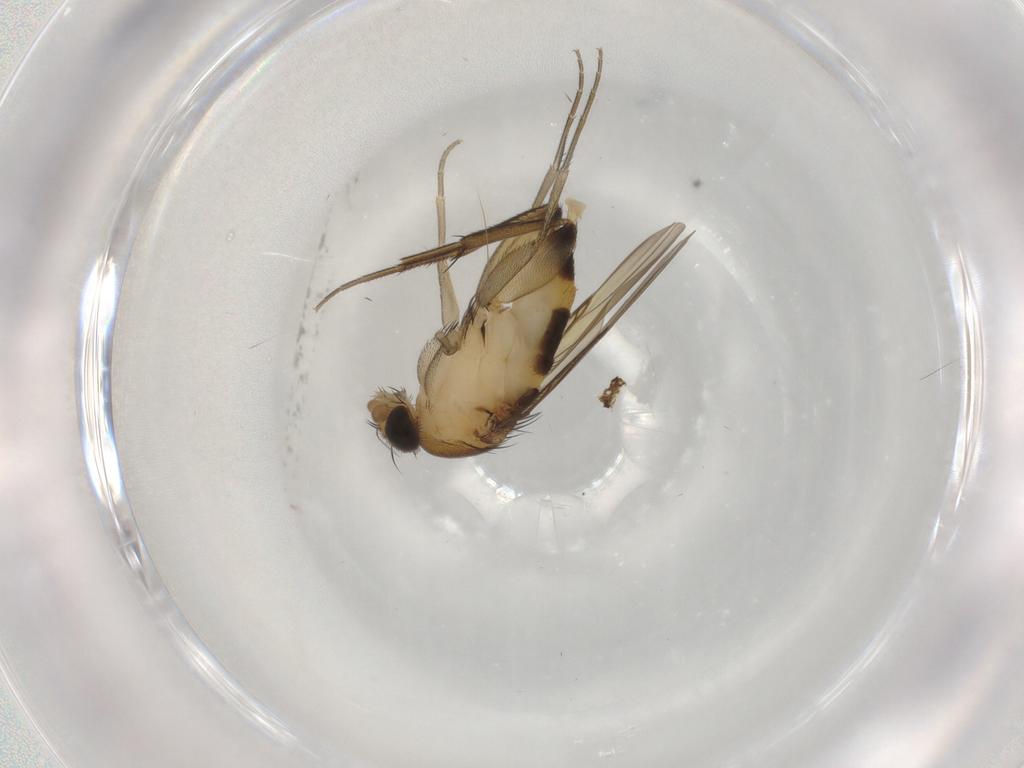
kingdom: Animalia
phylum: Arthropoda
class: Insecta
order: Diptera
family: Phoridae
